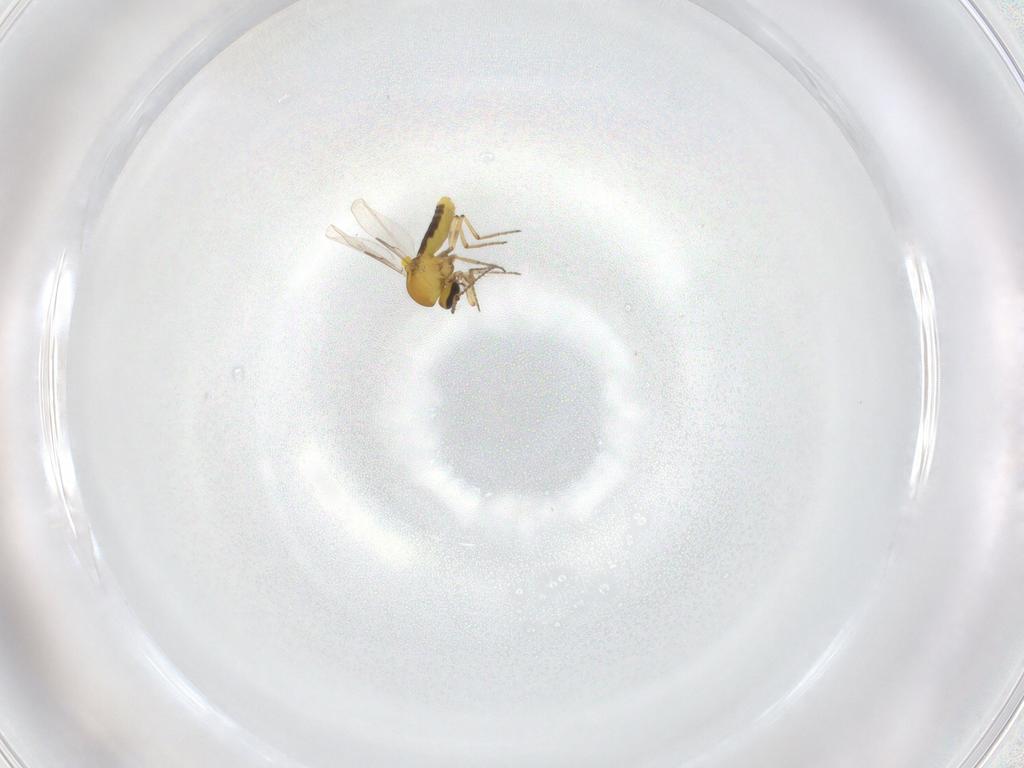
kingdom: Animalia
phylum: Arthropoda
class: Insecta
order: Diptera
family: Ceratopogonidae
